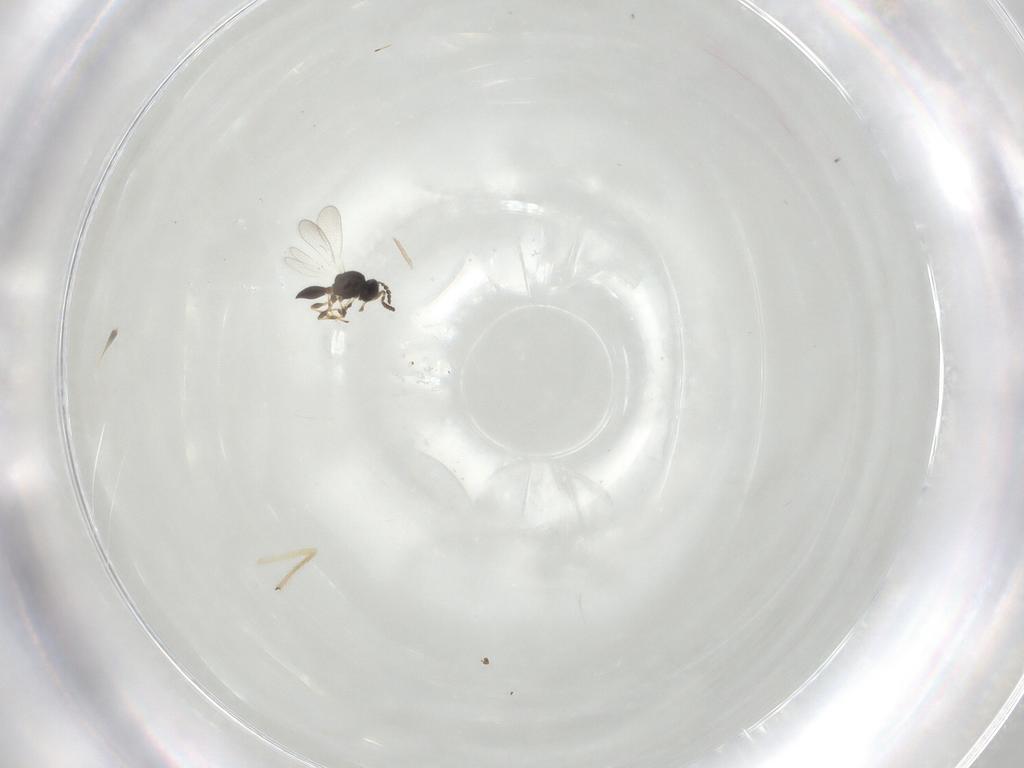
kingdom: Animalia
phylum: Arthropoda
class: Insecta
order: Hymenoptera
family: Platygastridae
